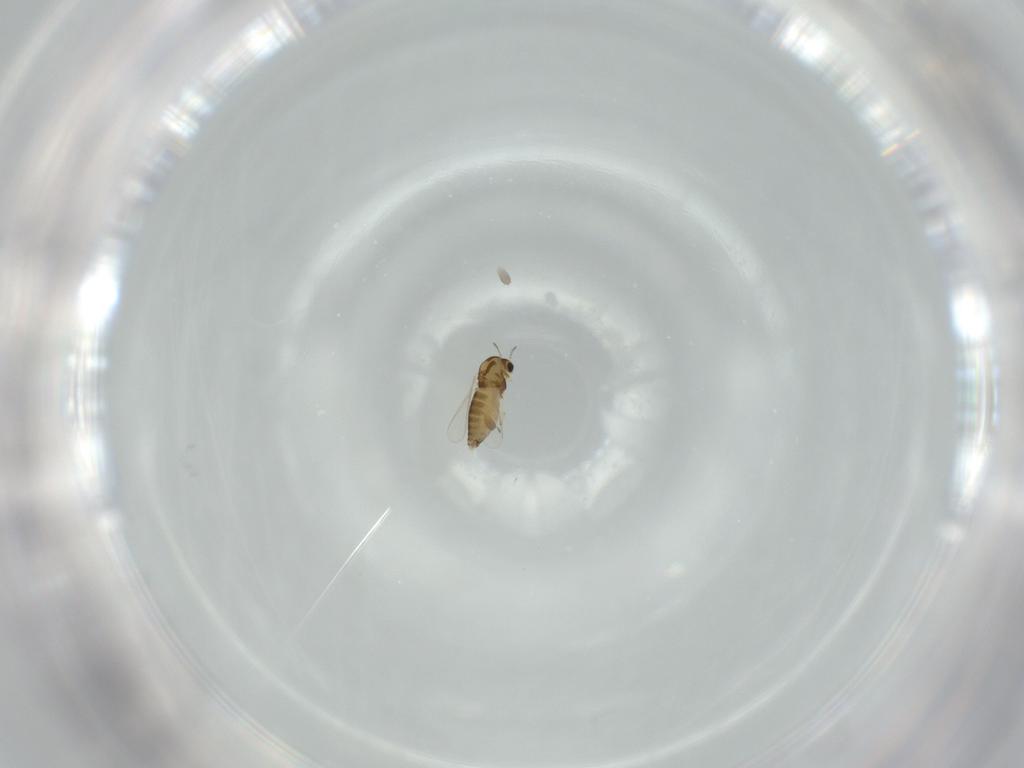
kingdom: Animalia
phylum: Arthropoda
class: Insecta
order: Diptera
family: Chironomidae
